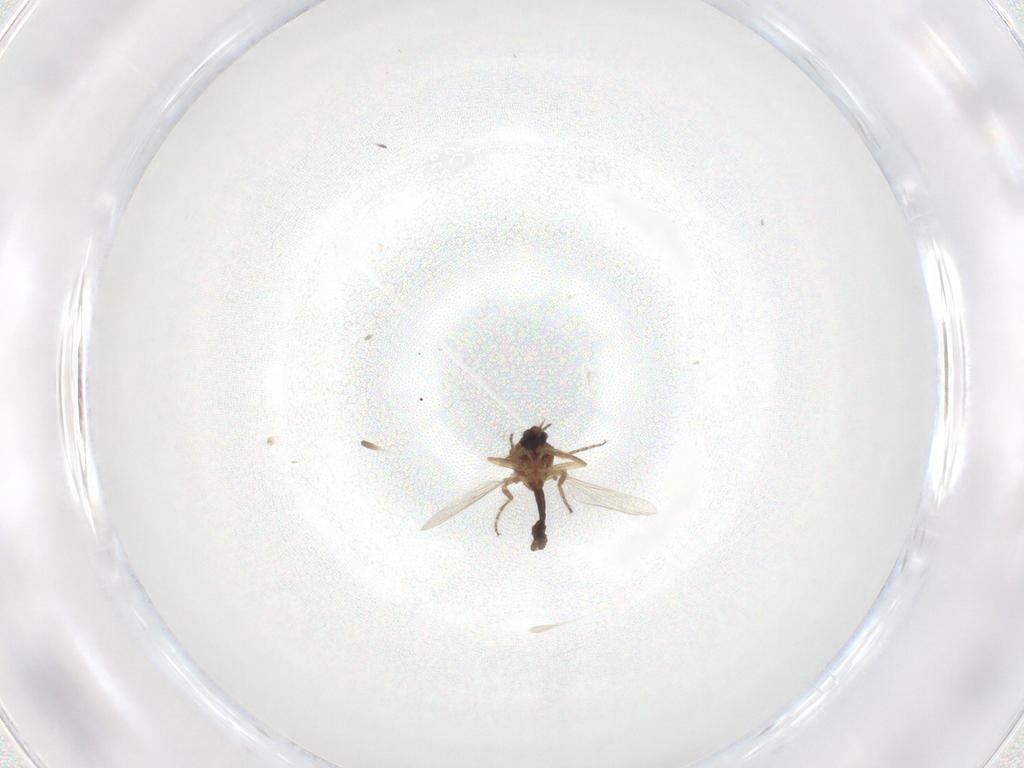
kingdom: Animalia
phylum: Arthropoda
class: Insecta
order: Diptera
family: Ceratopogonidae
